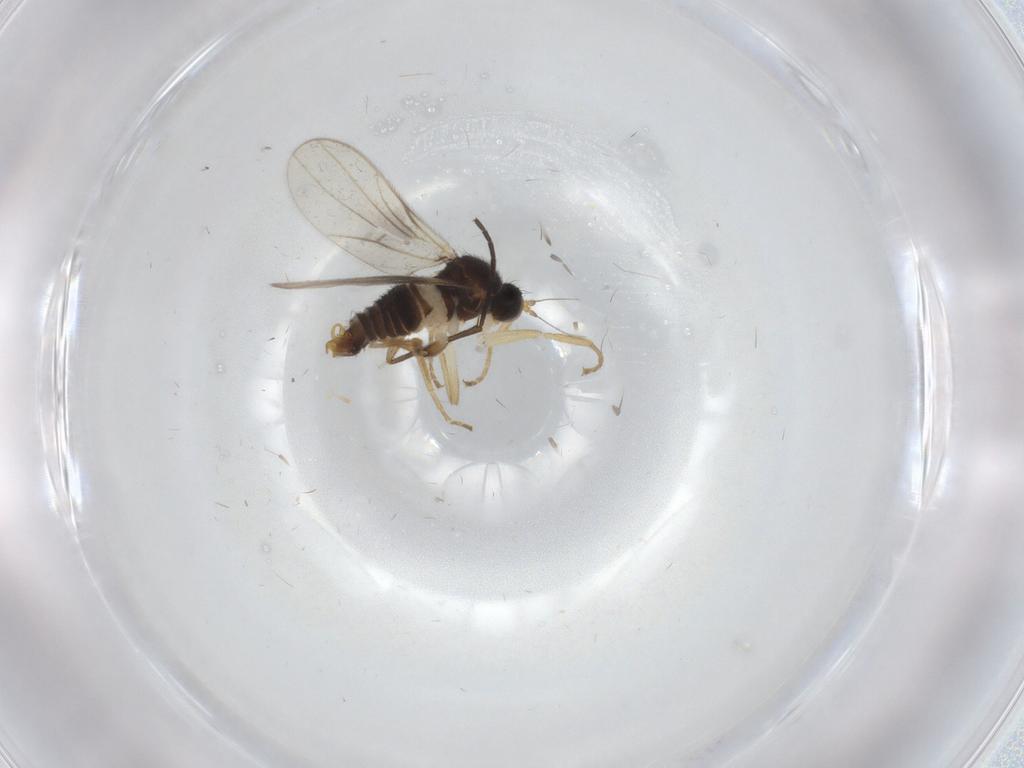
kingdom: Animalia
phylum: Arthropoda
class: Insecta
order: Diptera
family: Hybotidae
